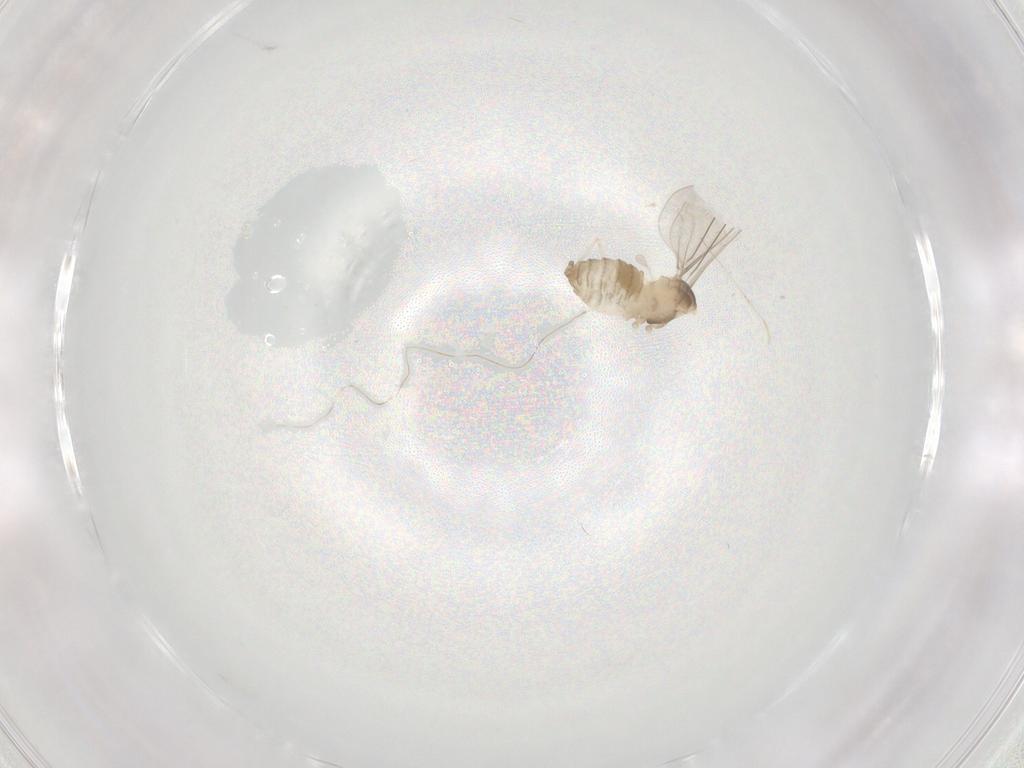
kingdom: Animalia
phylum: Arthropoda
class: Insecta
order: Diptera
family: Cecidomyiidae
